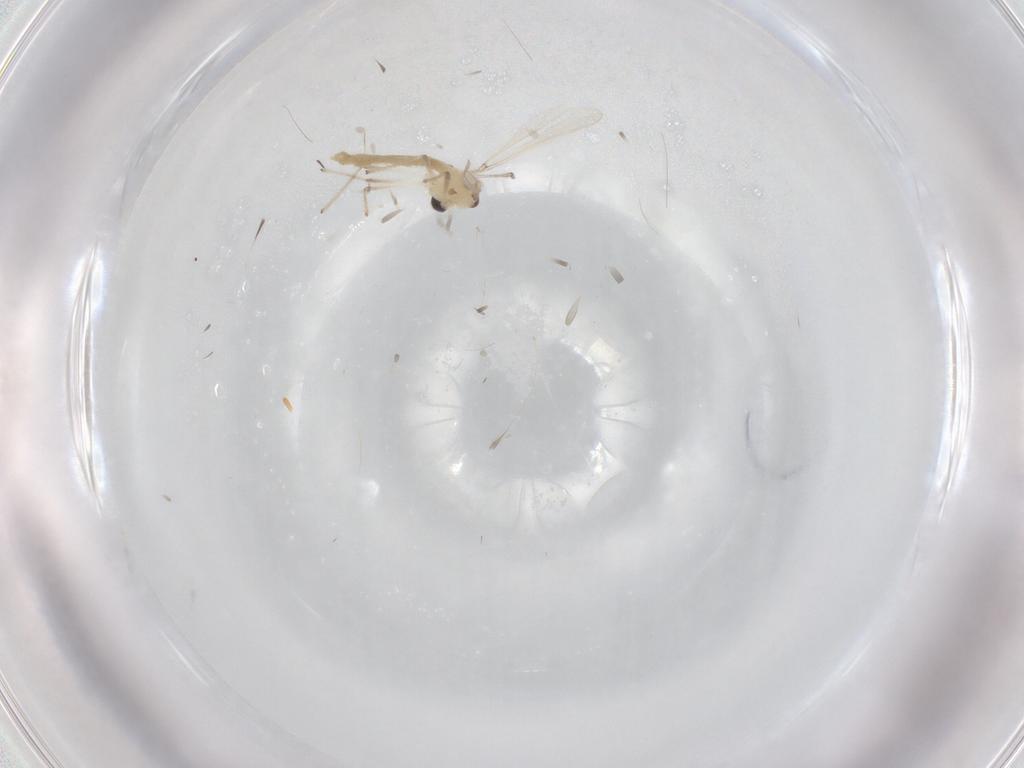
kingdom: Animalia
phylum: Arthropoda
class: Insecta
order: Diptera
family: Chironomidae
